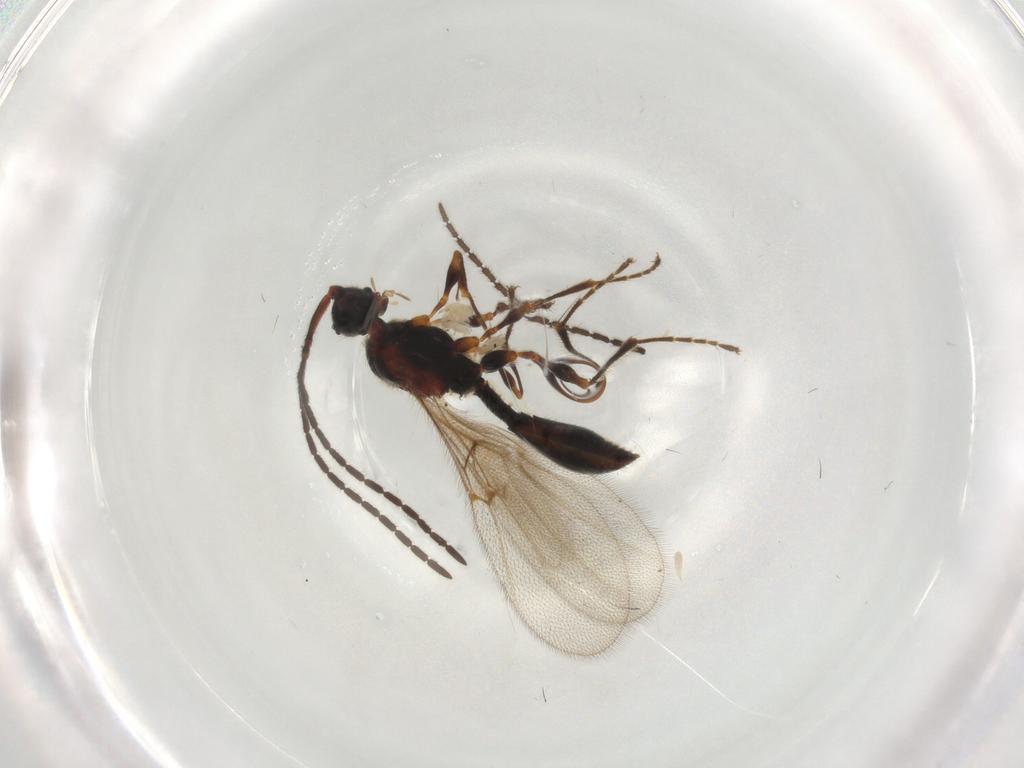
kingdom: Animalia
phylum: Arthropoda
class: Insecta
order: Hymenoptera
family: Diapriidae
